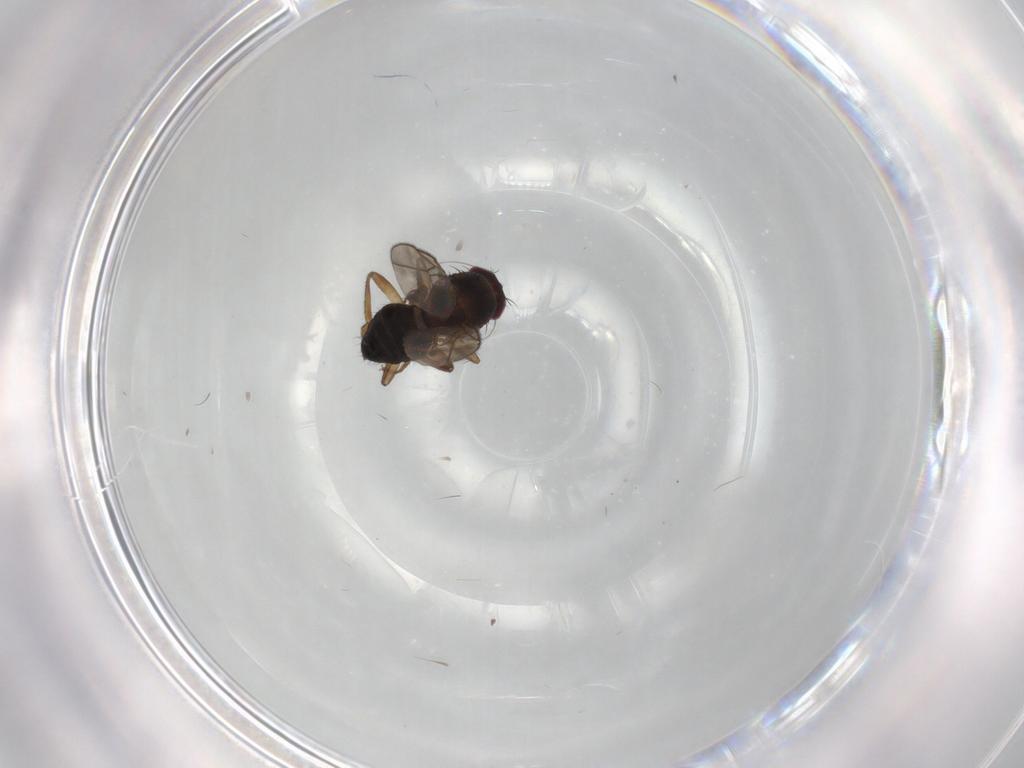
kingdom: Animalia
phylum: Arthropoda
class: Insecta
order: Diptera
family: Sphaeroceridae
